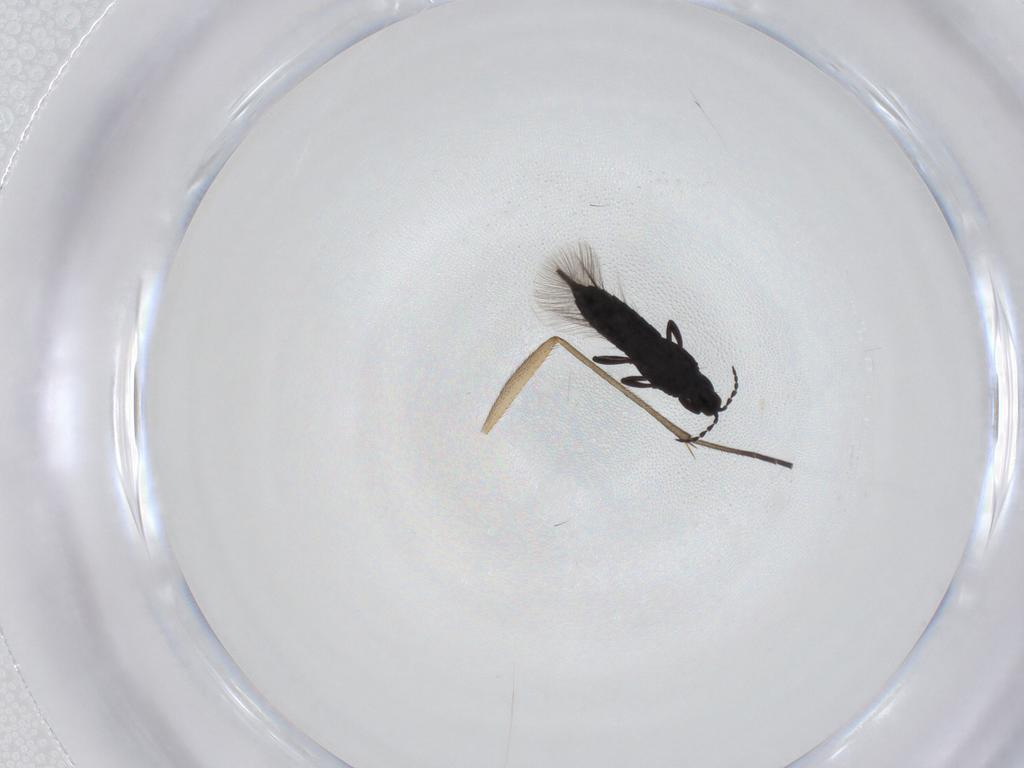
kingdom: Animalia
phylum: Arthropoda
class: Insecta
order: Thysanoptera
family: Phlaeothripidae
